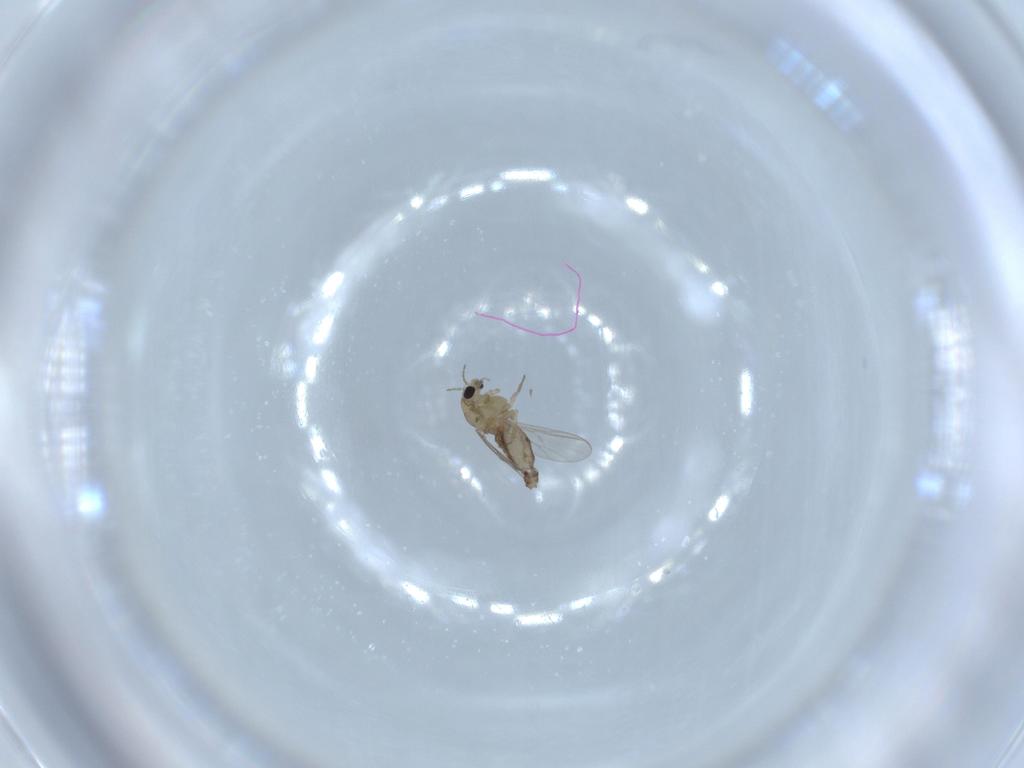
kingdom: Animalia
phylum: Arthropoda
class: Insecta
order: Diptera
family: Chironomidae
